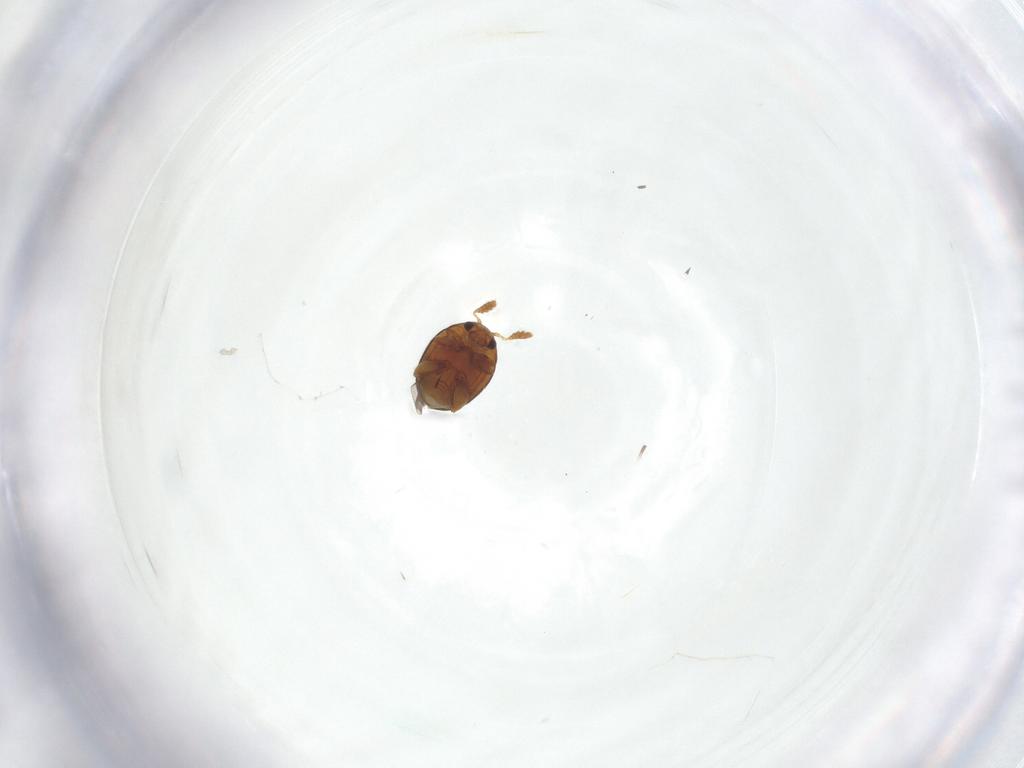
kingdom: Animalia
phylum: Arthropoda
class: Insecta
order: Coleoptera
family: Chrysomelidae
